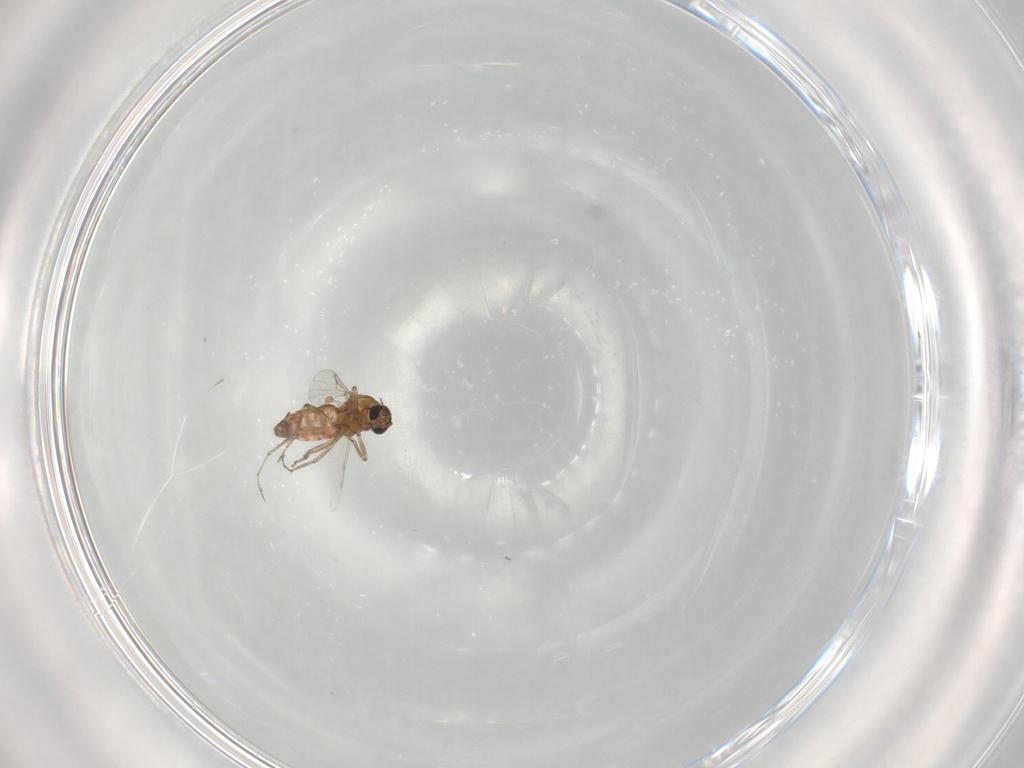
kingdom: Animalia
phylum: Arthropoda
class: Insecta
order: Diptera
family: Ceratopogonidae
